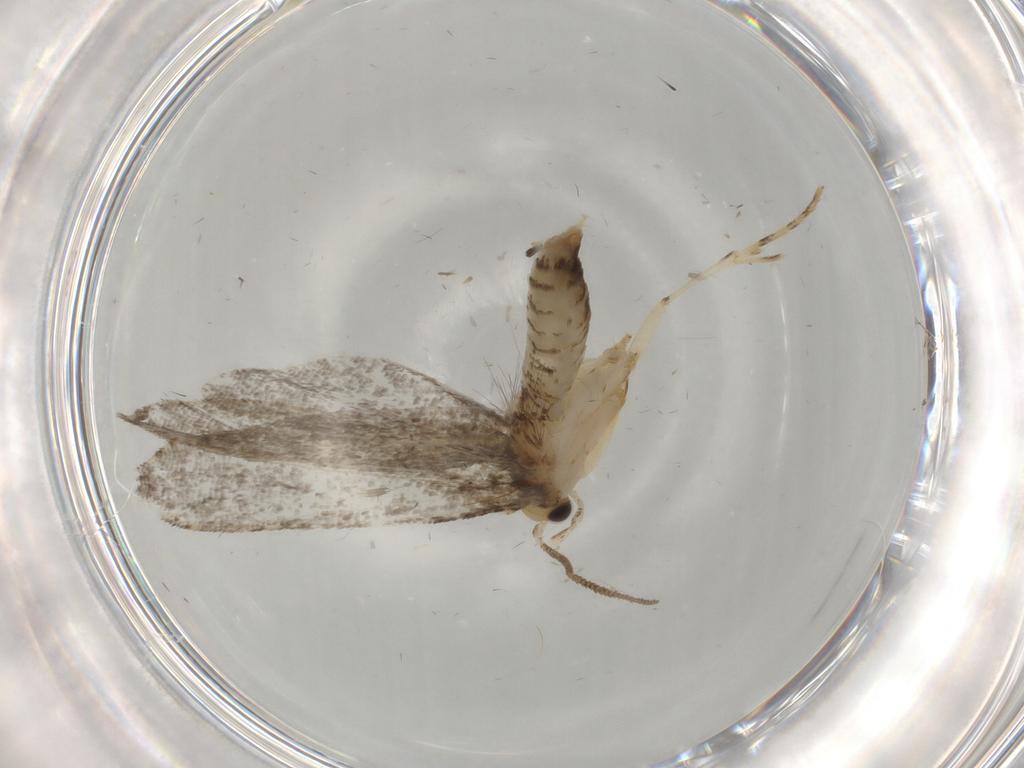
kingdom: Animalia
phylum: Arthropoda
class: Insecta
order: Lepidoptera
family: Tineidae
